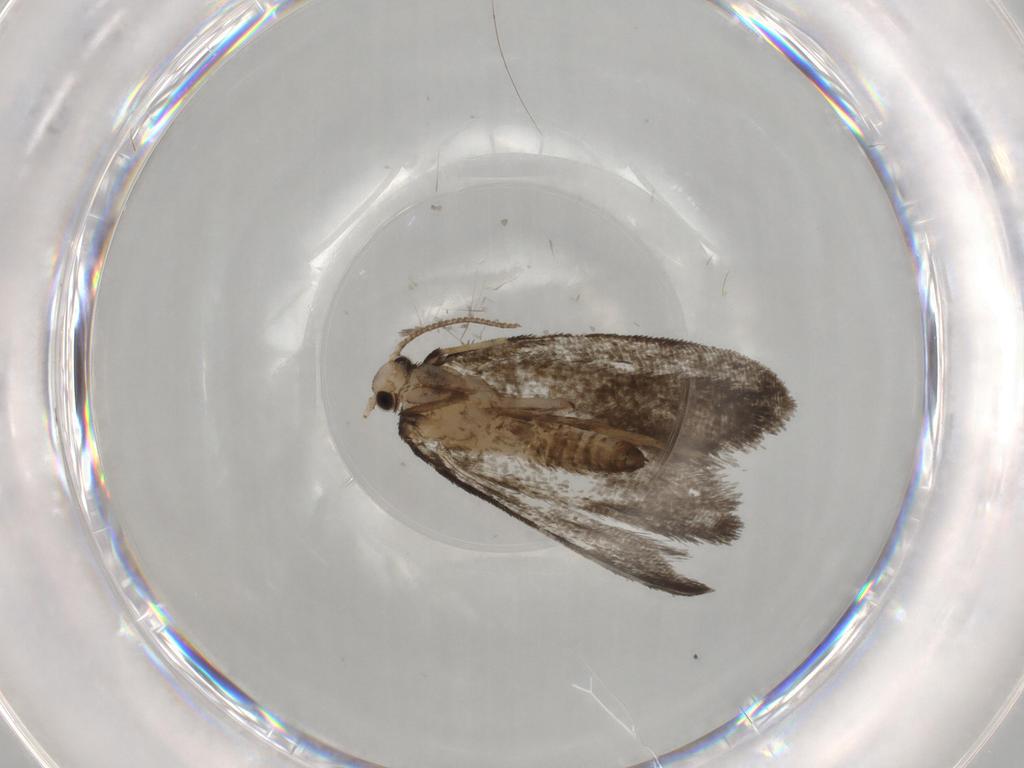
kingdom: Animalia
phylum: Arthropoda
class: Insecta
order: Lepidoptera
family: Psychidae
